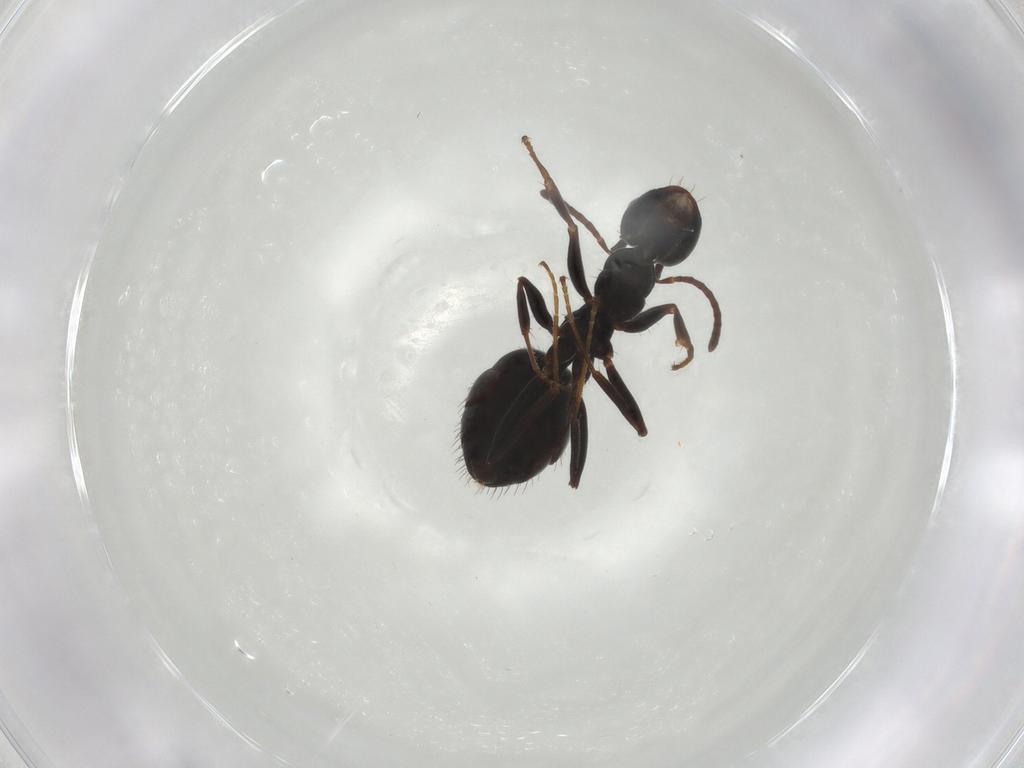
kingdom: Animalia
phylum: Arthropoda
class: Insecta
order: Hymenoptera
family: Formicidae
